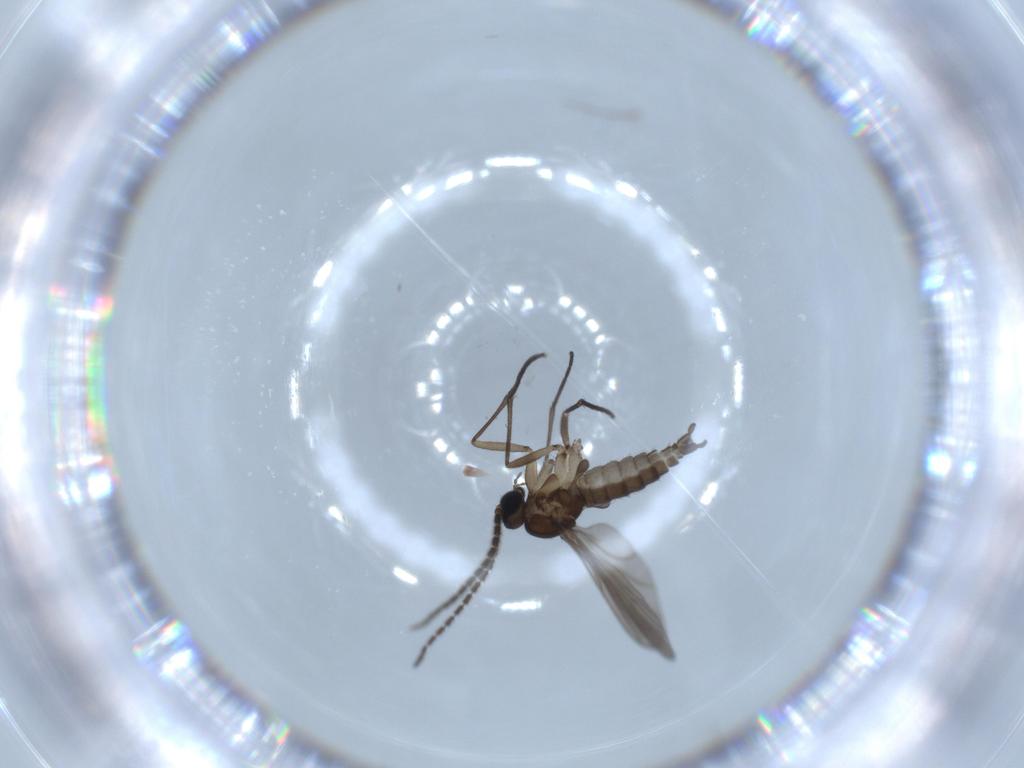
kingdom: Animalia
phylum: Arthropoda
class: Insecta
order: Diptera
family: Sciaridae
